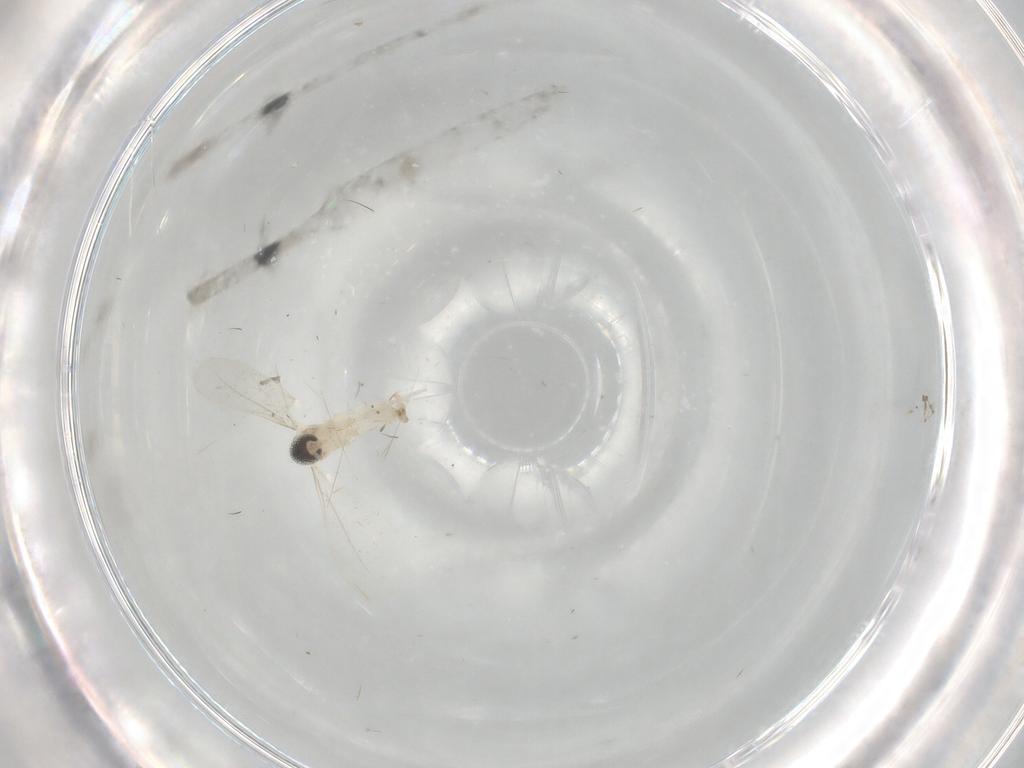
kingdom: Animalia
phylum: Arthropoda
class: Insecta
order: Diptera
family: Cecidomyiidae
